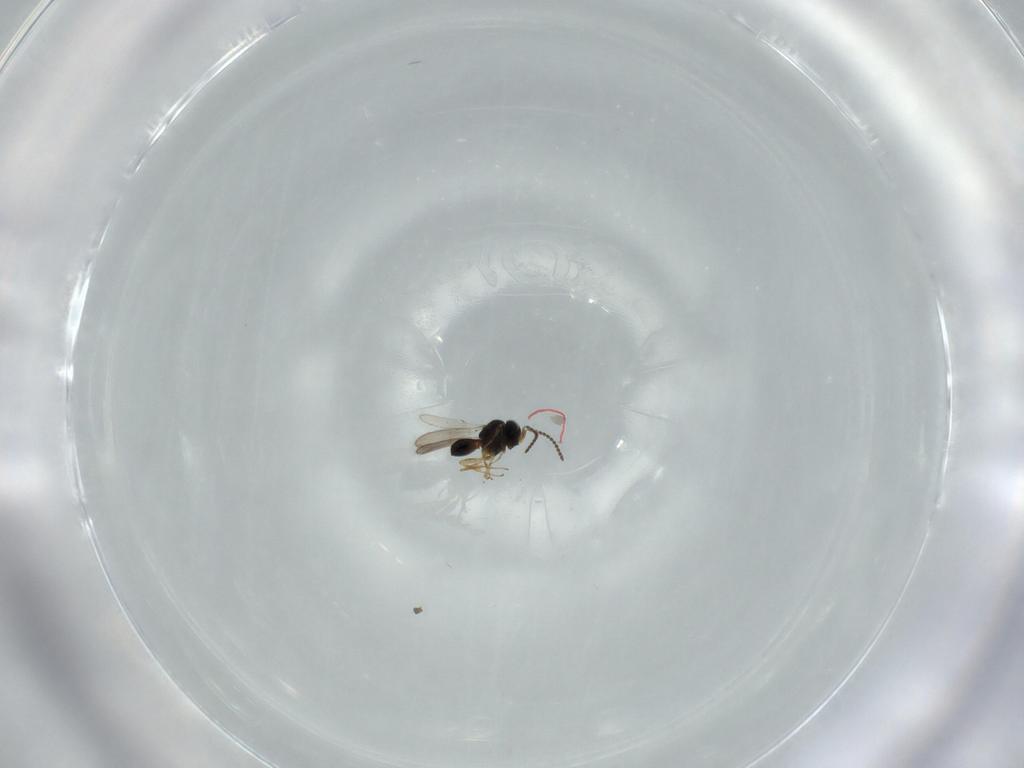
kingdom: Animalia
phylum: Arthropoda
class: Insecta
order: Hymenoptera
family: Scelionidae
